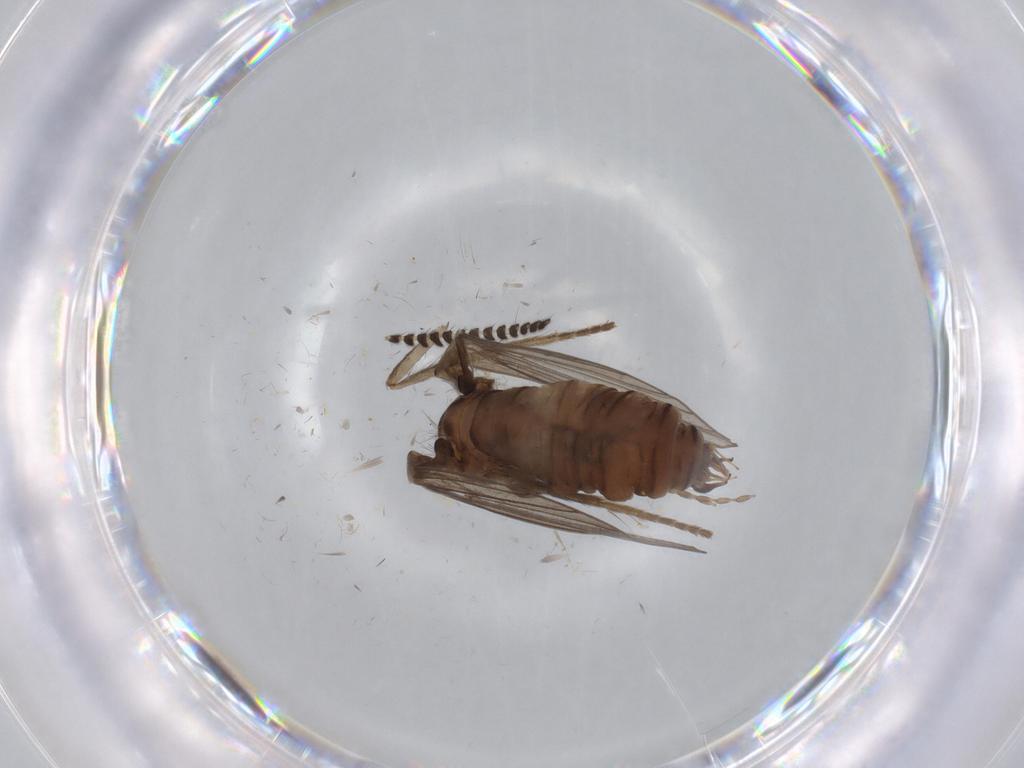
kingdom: Animalia
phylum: Arthropoda
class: Insecta
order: Diptera
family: Psychodidae
